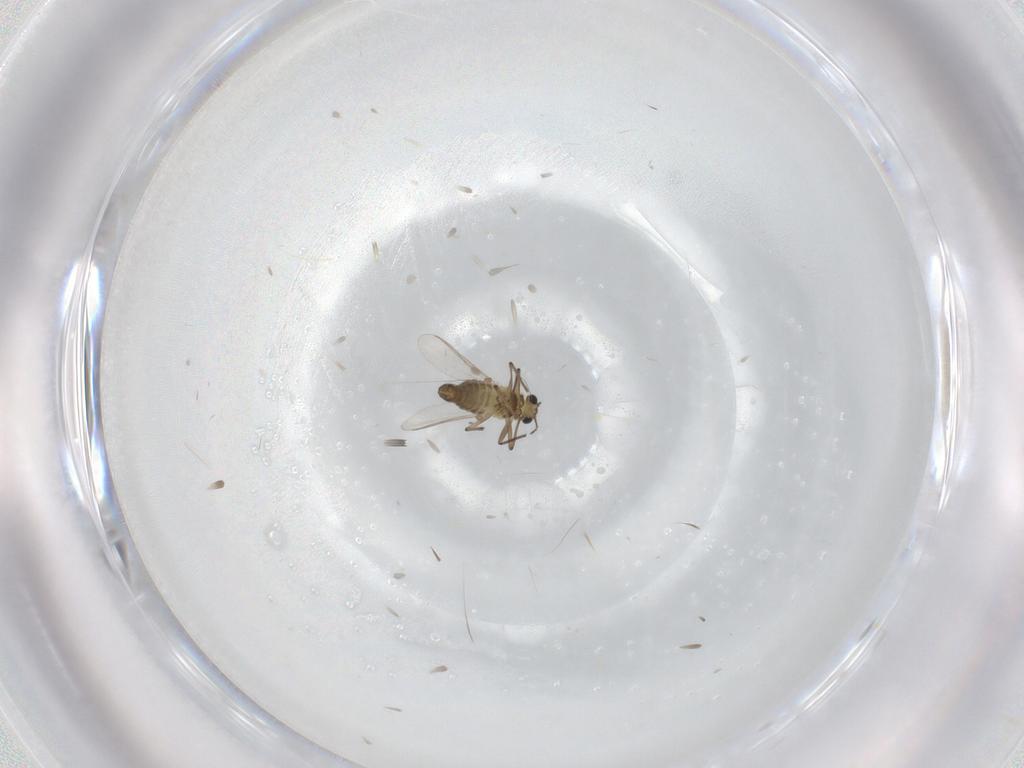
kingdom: Animalia
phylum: Arthropoda
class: Insecta
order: Diptera
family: Chironomidae
